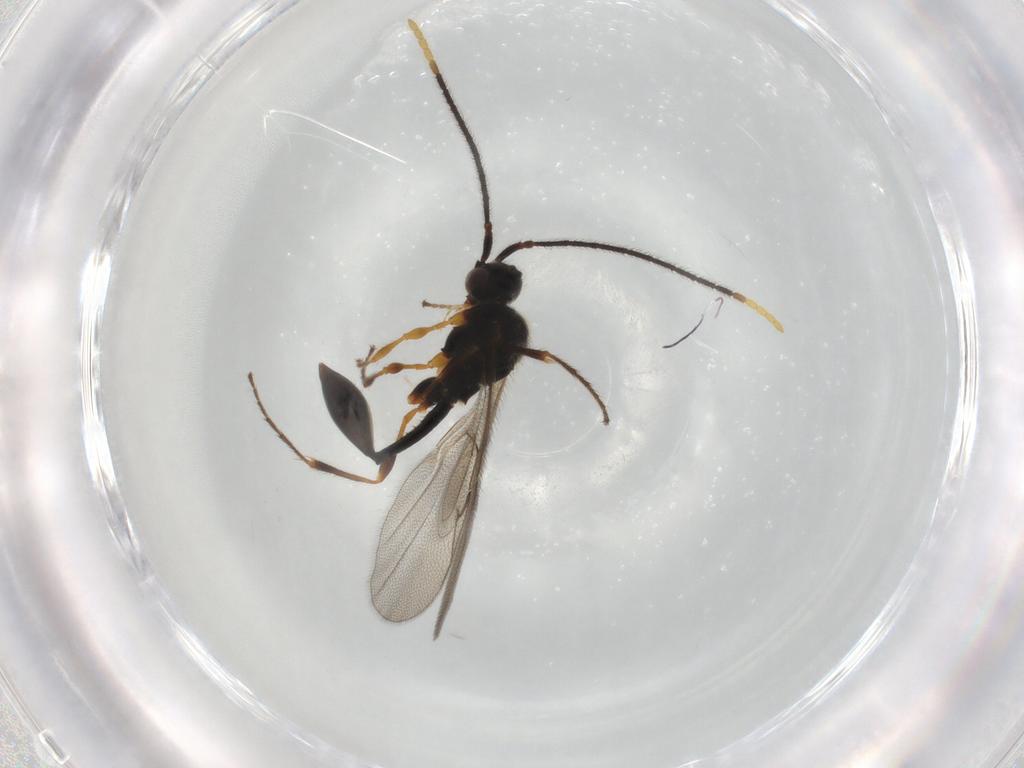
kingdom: Animalia
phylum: Arthropoda
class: Insecta
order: Hymenoptera
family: Diapriidae
